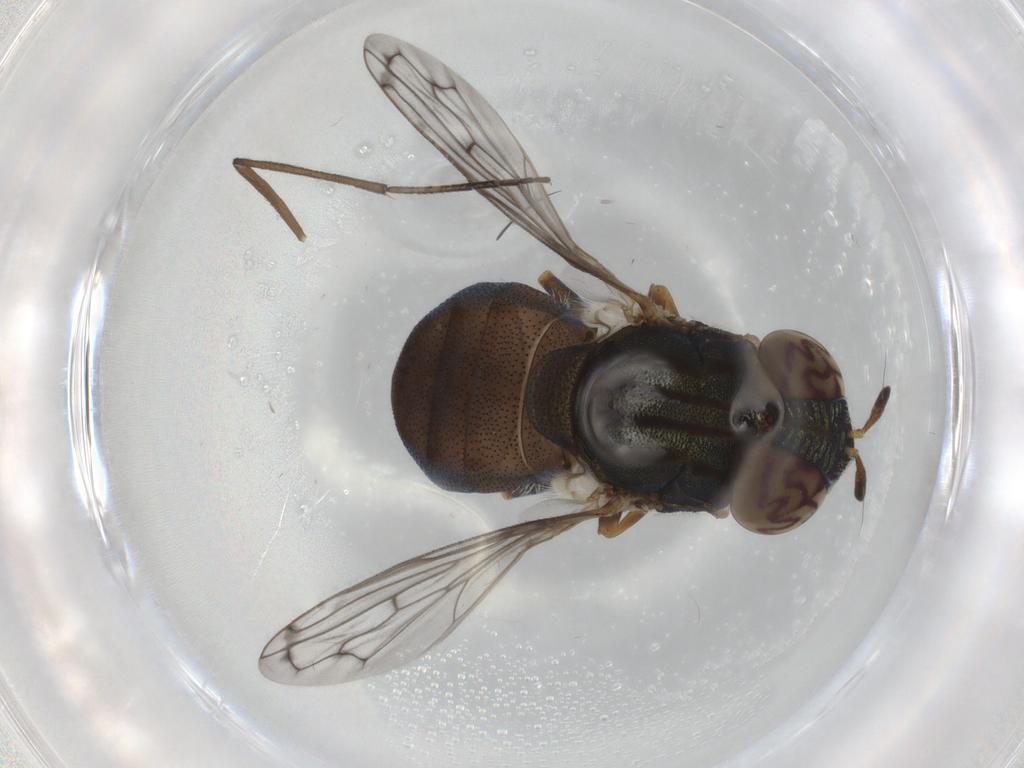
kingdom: Animalia
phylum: Arthropoda
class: Insecta
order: Diptera
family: Syrphidae
